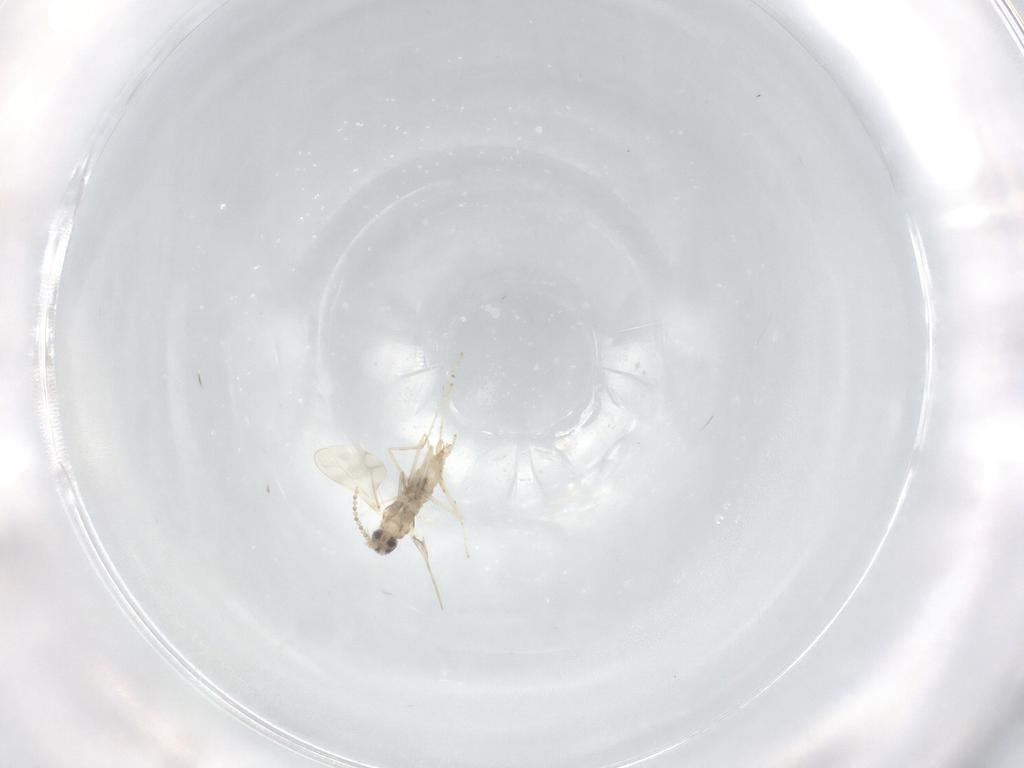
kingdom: Animalia
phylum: Arthropoda
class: Insecta
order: Diptera
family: Cecidomyiidae
